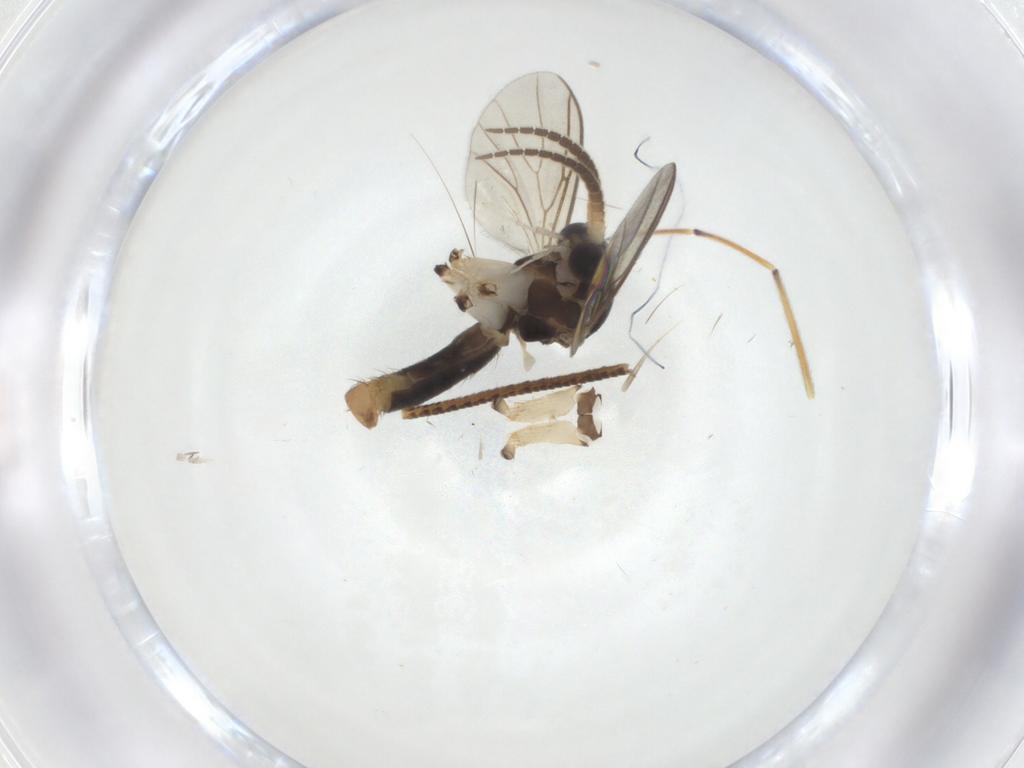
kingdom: Animalia
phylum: Arthropoda
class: Insecta
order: Diptera
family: Mycetophilidae
